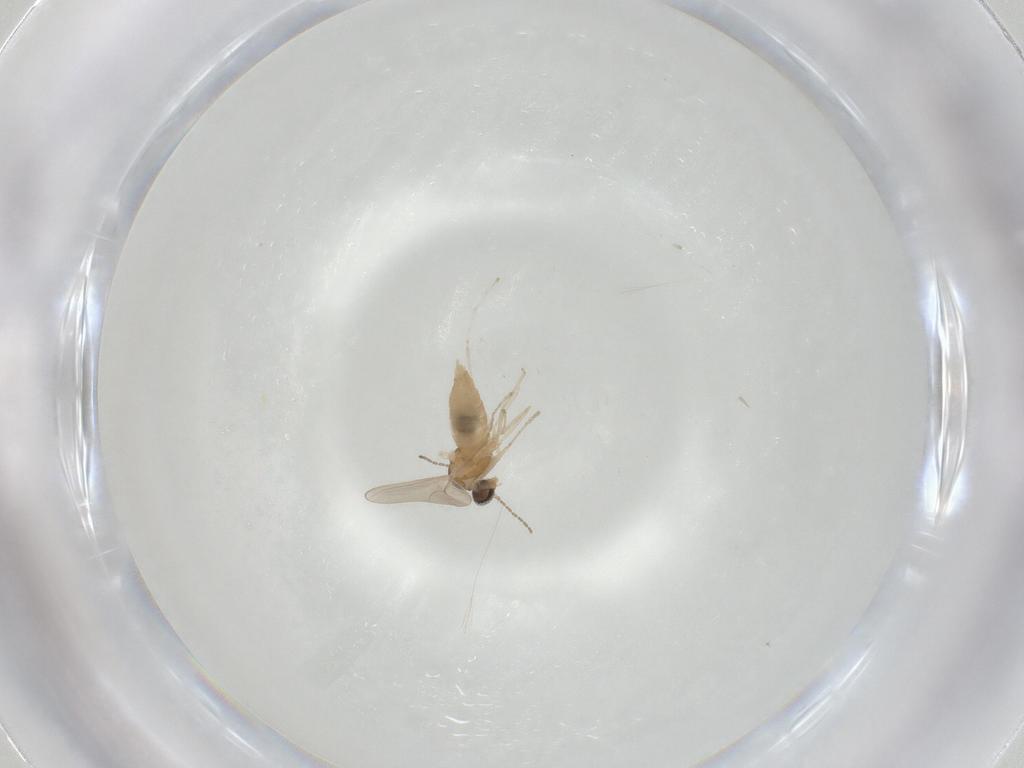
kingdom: Animalia
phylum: Arthropoda
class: Insecta
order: Diptera
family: Cecidomyiidae
